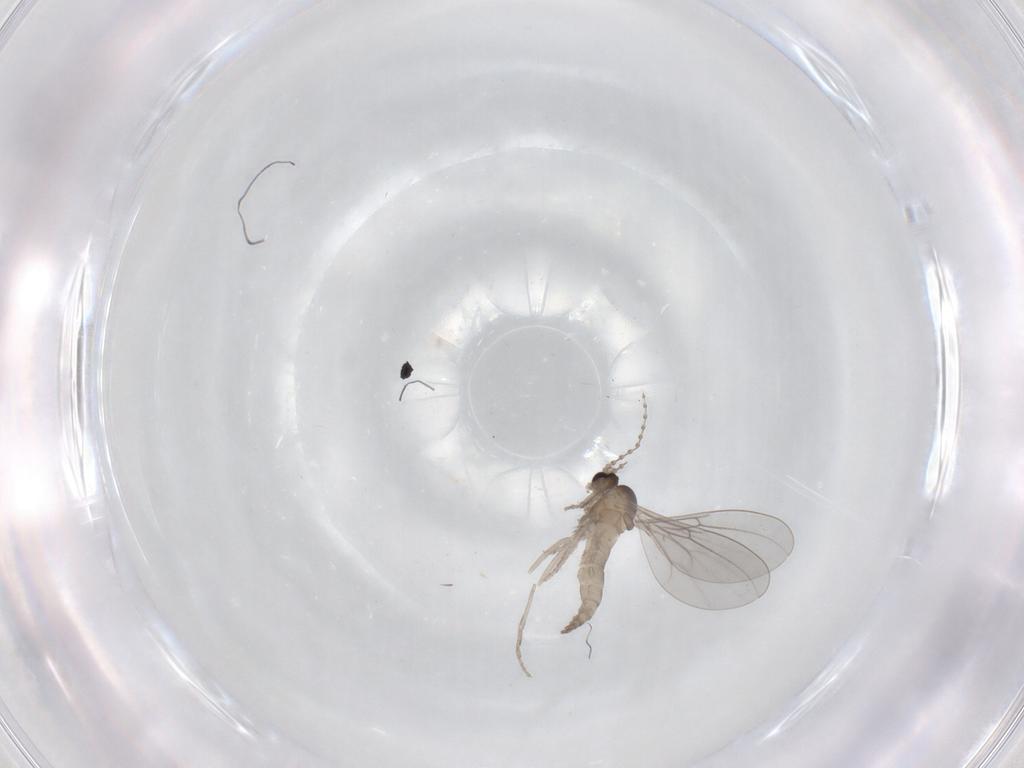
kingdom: Animalia
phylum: Arthropoda
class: Insecta
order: Diptera
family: Cecidomyiidae
